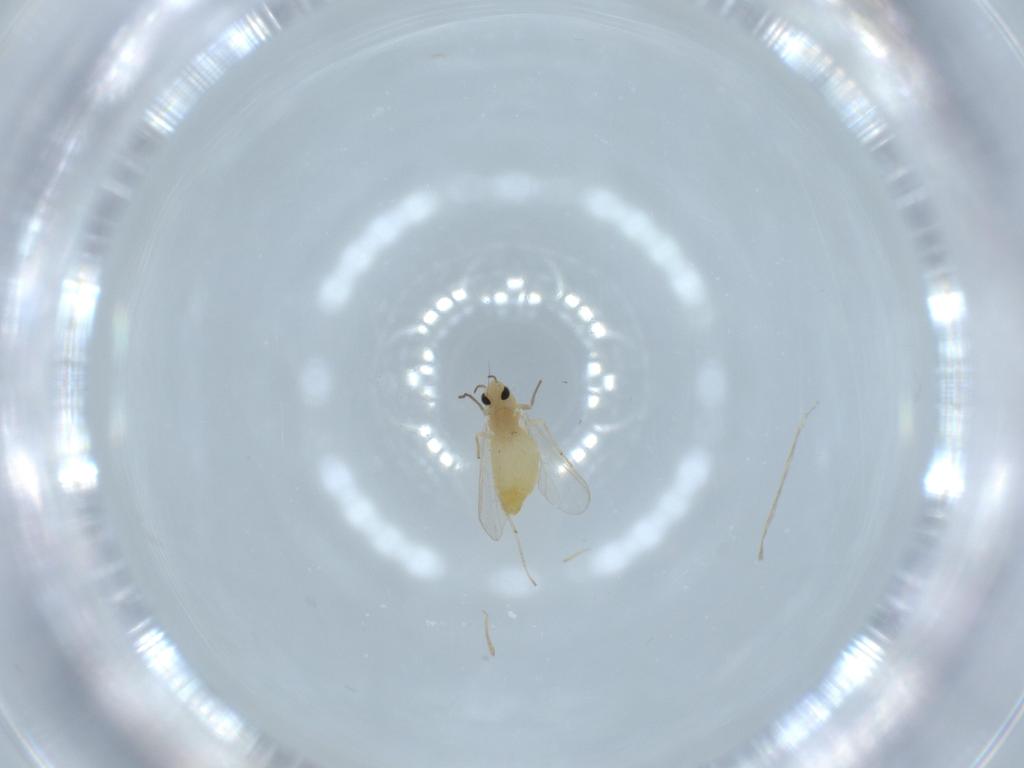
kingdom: Animalia
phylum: Arthropoda
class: Insecta
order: Diptera
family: Chironomidae
